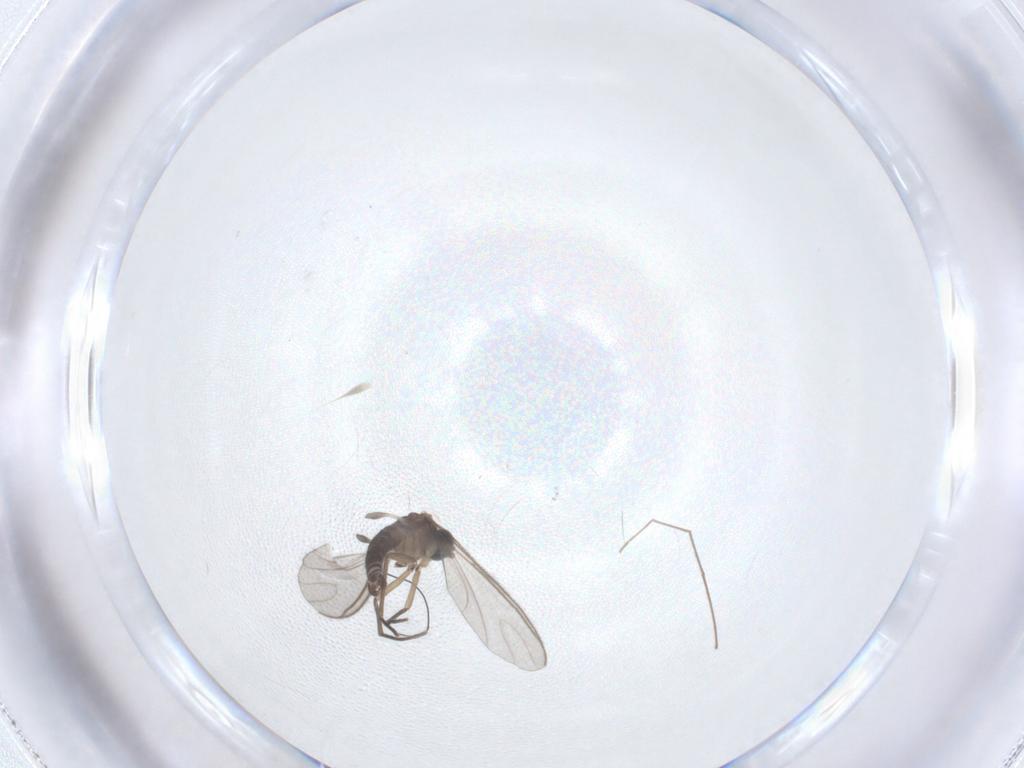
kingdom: Animalia
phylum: Arthropoda
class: Insecta
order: Diptera
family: Sciaridae
